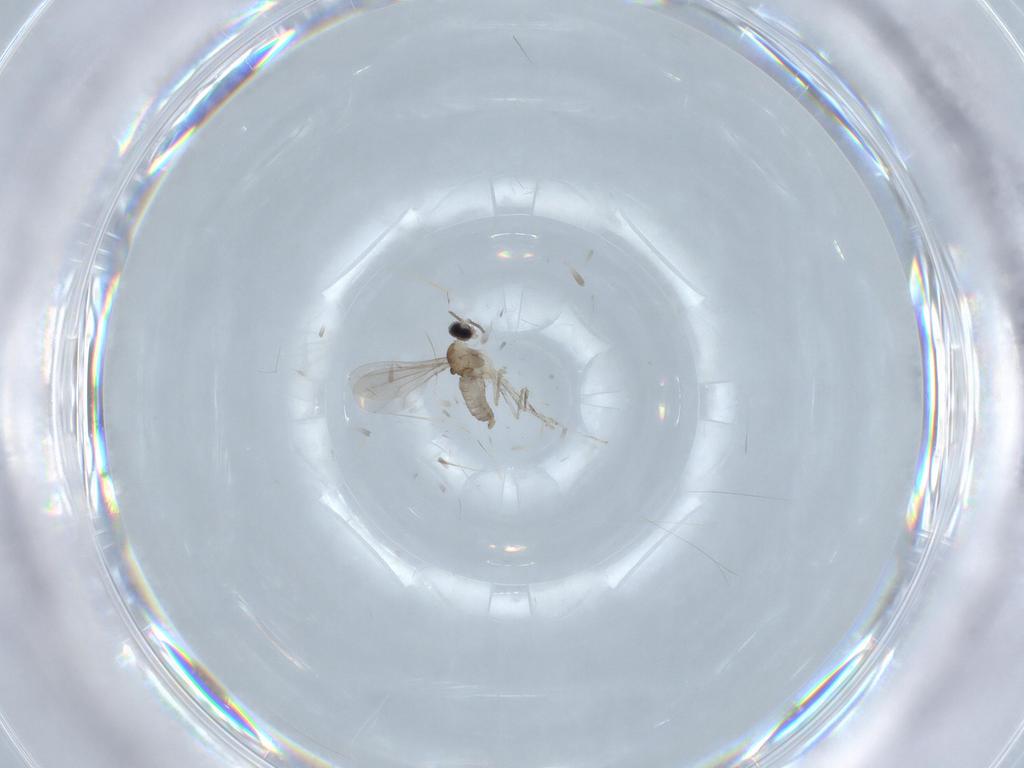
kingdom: Animalia
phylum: Arthropoda
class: Insecta
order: Diptera
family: Cecidomyiidae
